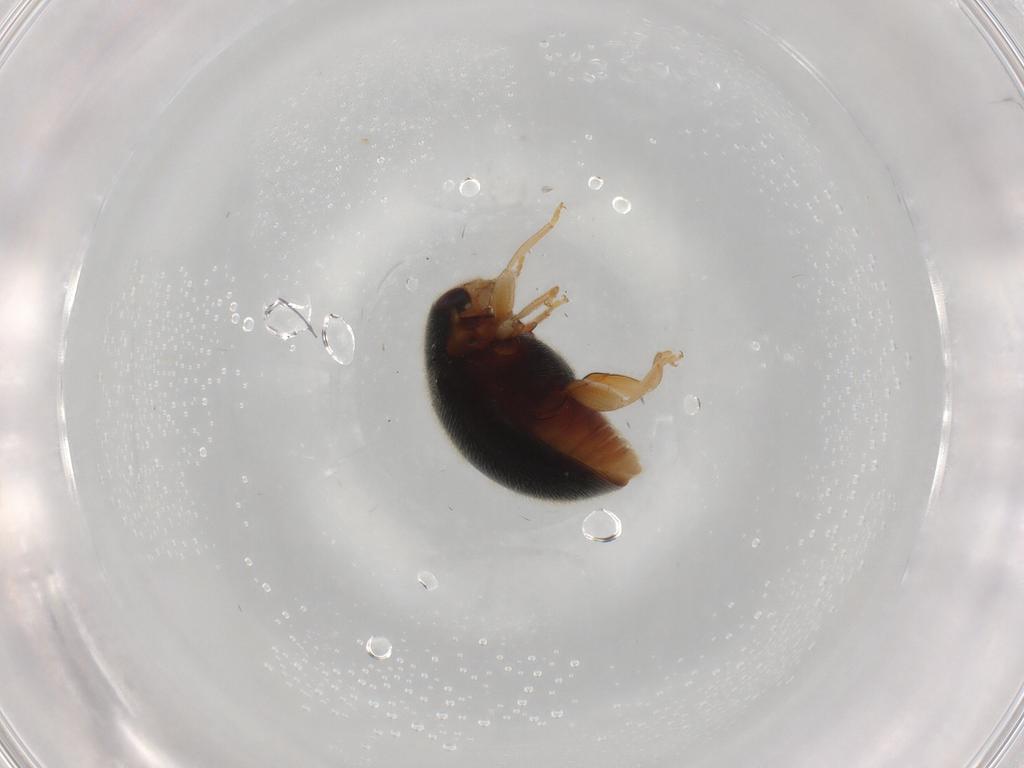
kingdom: Animalia
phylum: Arthropoda
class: Insecta
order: Coleoptera
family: Coccinellidae
